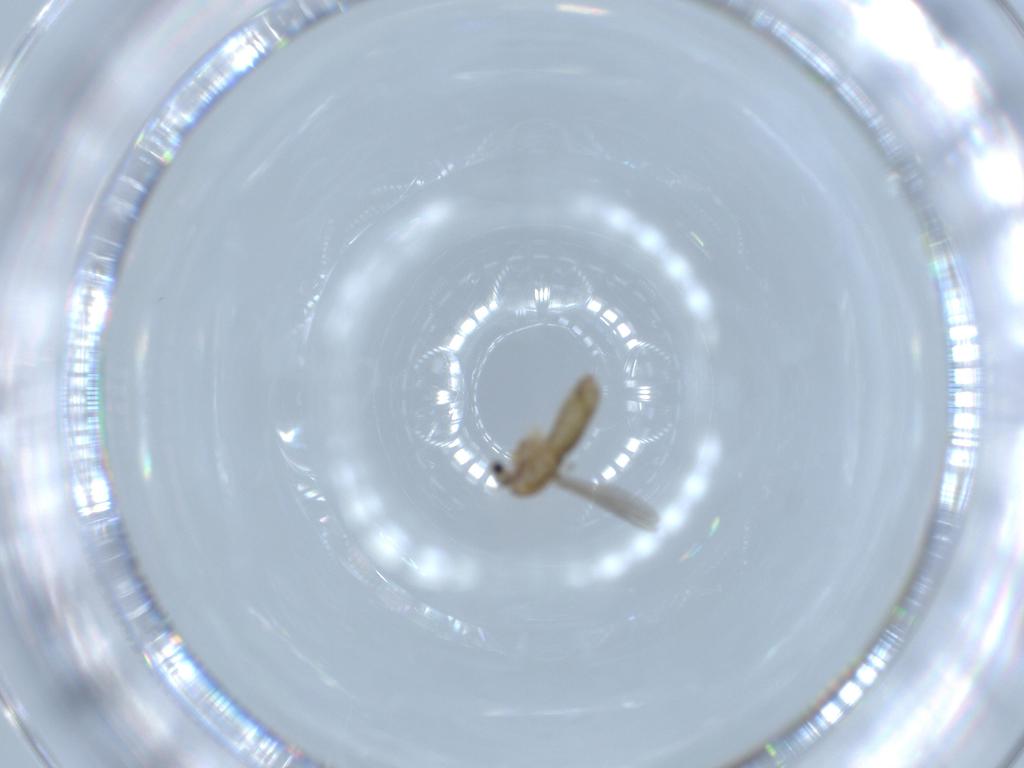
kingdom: Animalia
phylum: Arthropoda
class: Insecta
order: Diptera
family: Chironomidae
